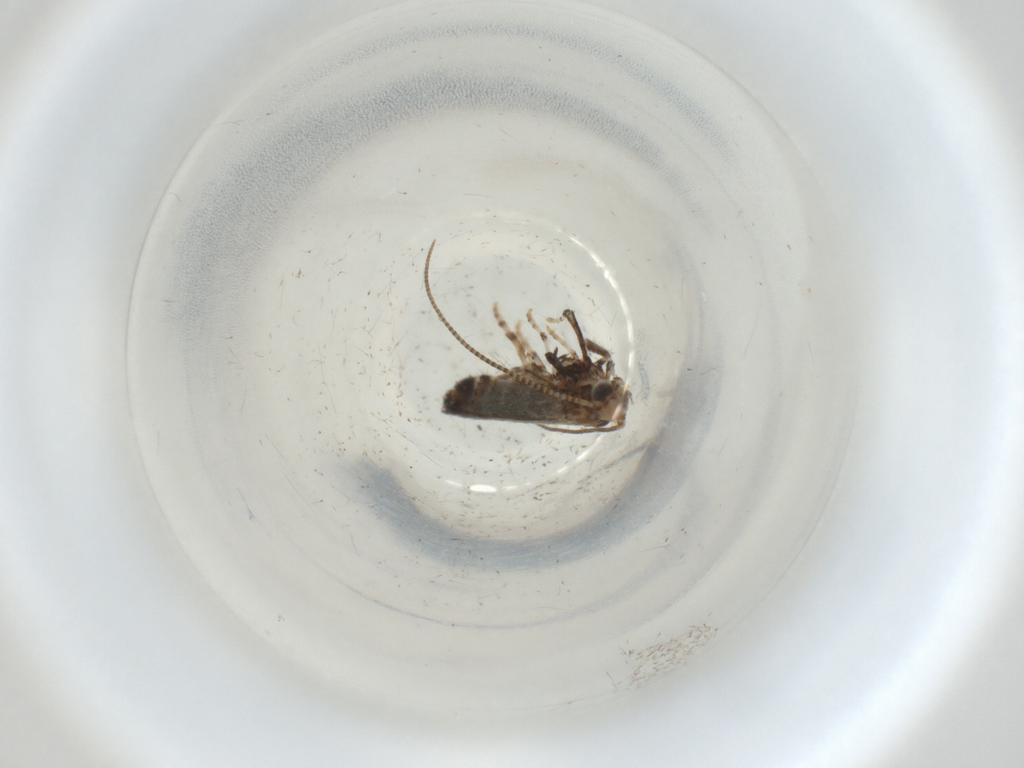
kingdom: Animalia
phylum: Arthropoda
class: Insecta
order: Lepidoptera
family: Gracillariidae
